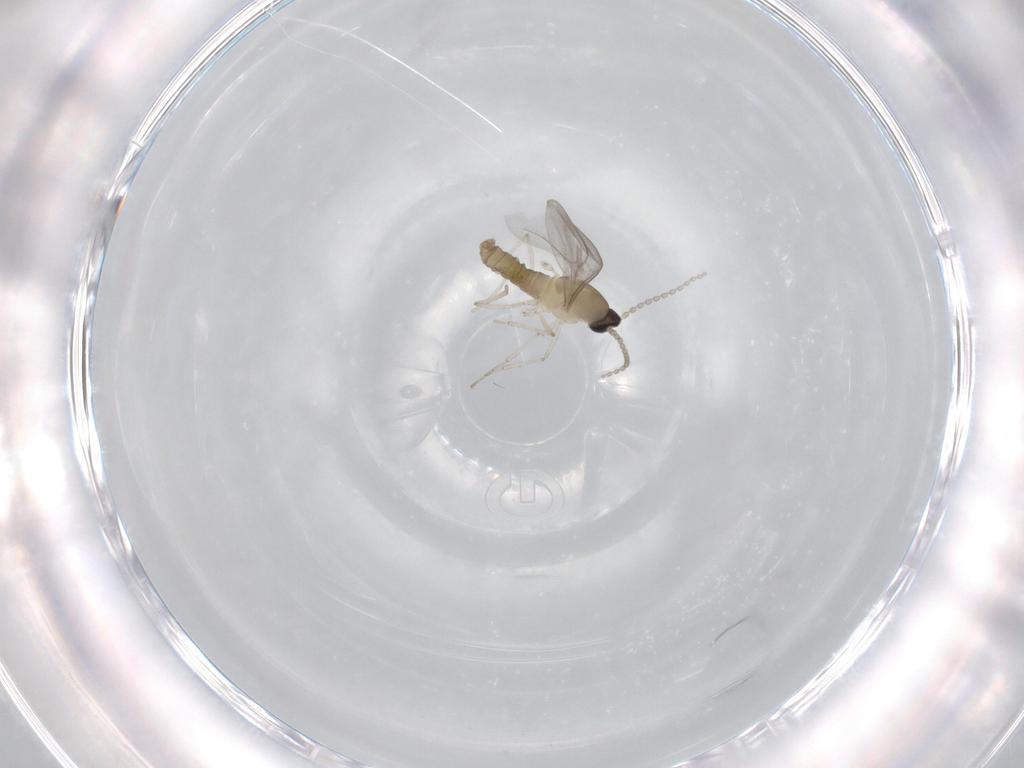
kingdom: Animalia
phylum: Arthropoda
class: Insecta
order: Diptera
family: Cecidomyiidae
